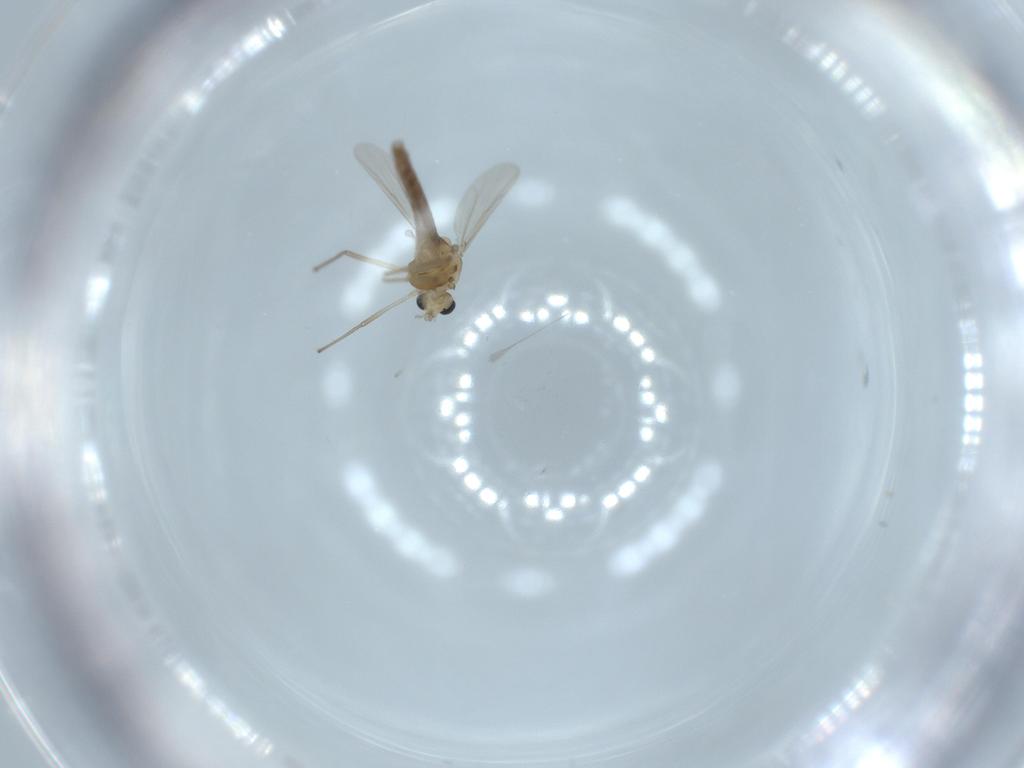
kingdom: Animalia
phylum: Arthropoda
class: Insecta
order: Diptera
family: Chironomidae
